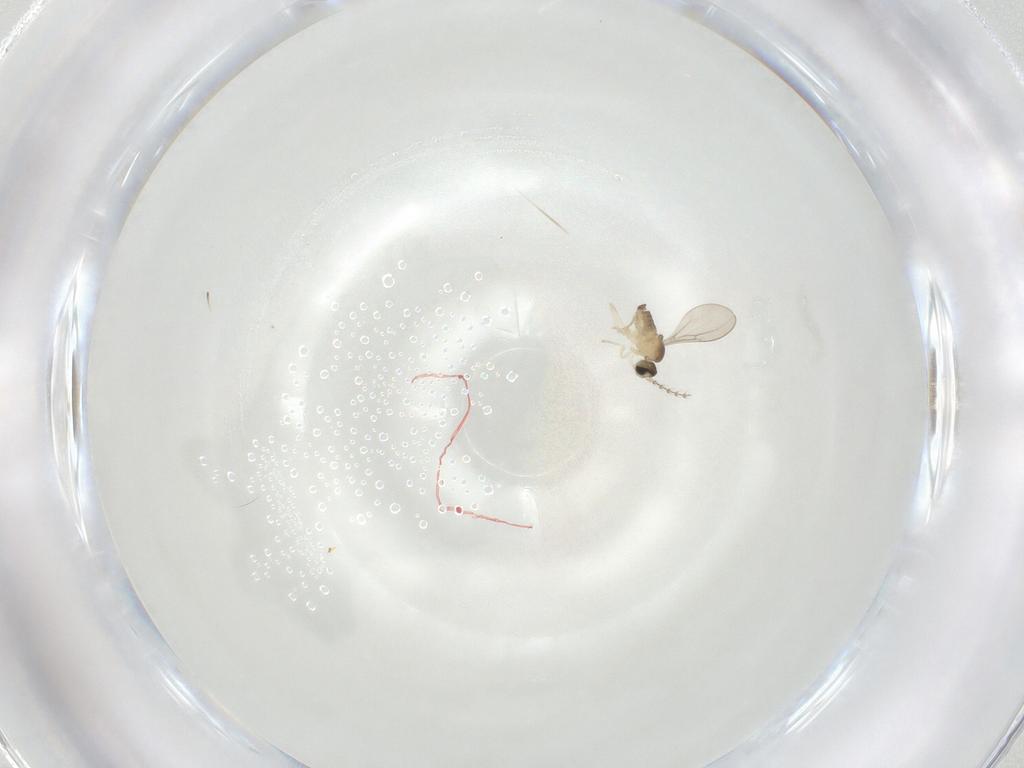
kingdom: Animalia
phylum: Arthropoda
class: Insecta
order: Diptera
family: Cecidomyiidae
